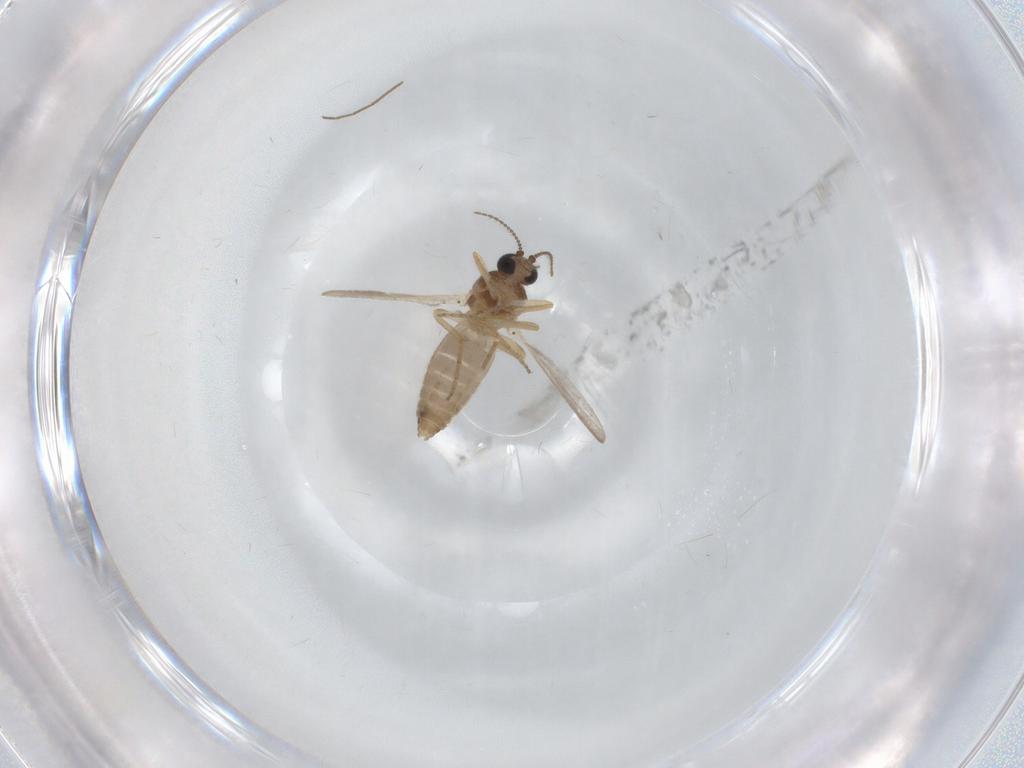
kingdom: Animalia
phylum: Arthropoda
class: Insecta
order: Diptera
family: Ceratopogonidae
